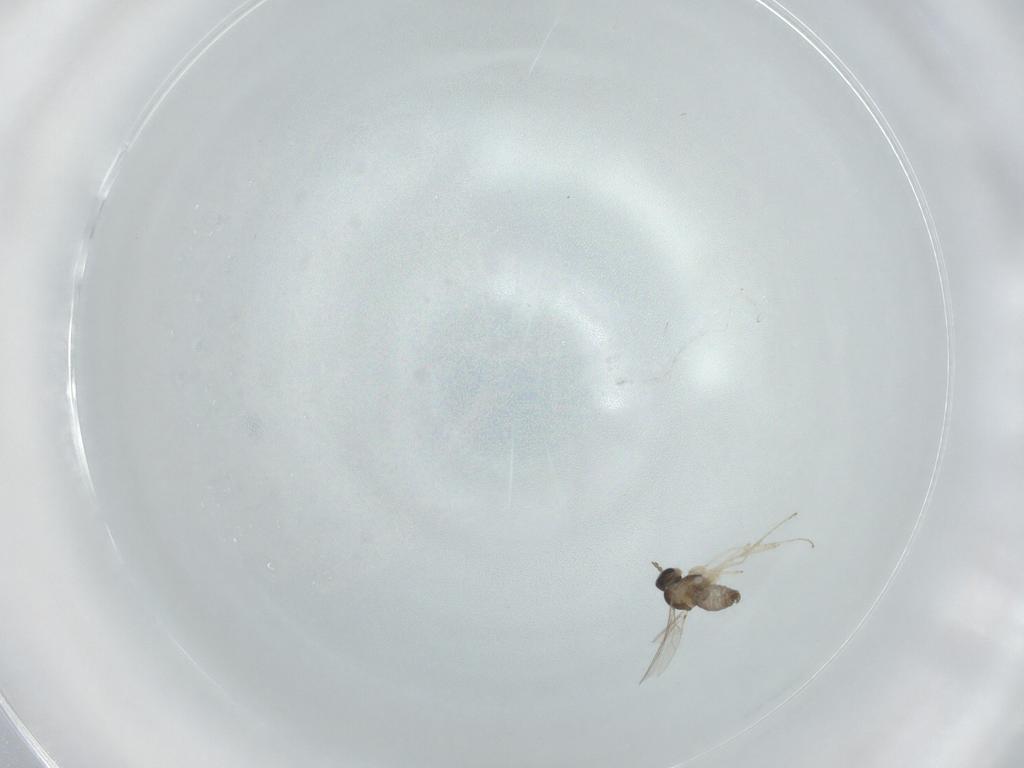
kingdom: Animalia
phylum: Arthropoda
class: Insecta
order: Diptera
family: Cecidomyiidae
